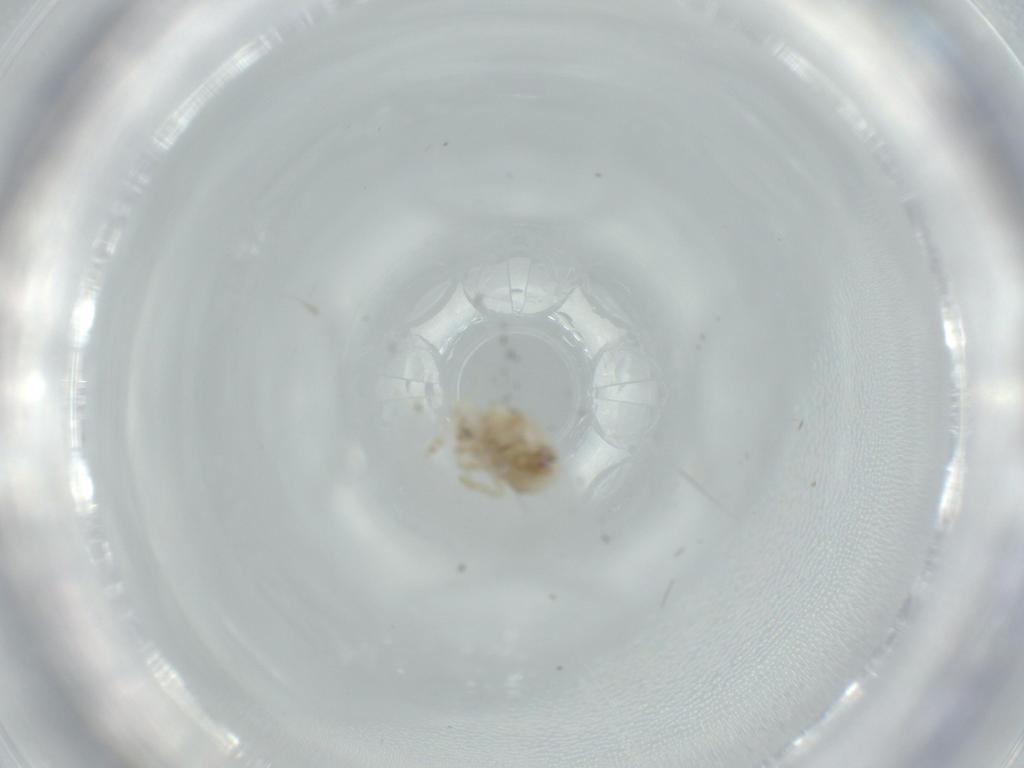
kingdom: Animalia
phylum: Arthropoda
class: Insecta
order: Hemiptera
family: Acanaloniidae
